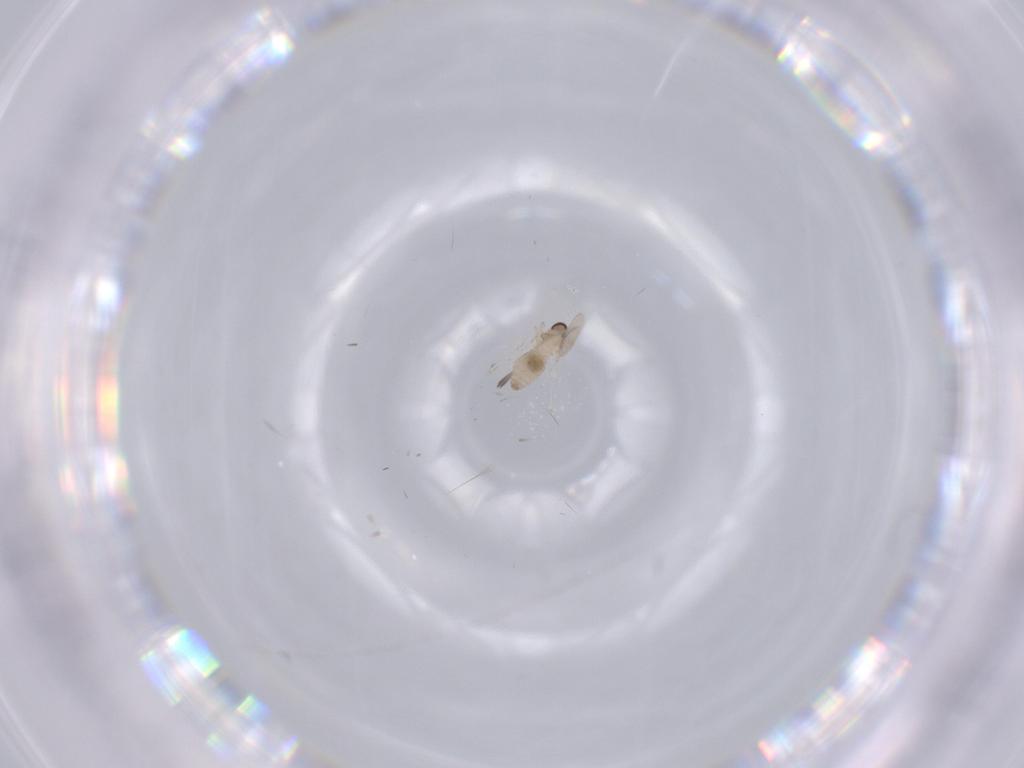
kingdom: Animalia
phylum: Arthropoda
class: Insecta
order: Diptera
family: Cecidomyiidae
